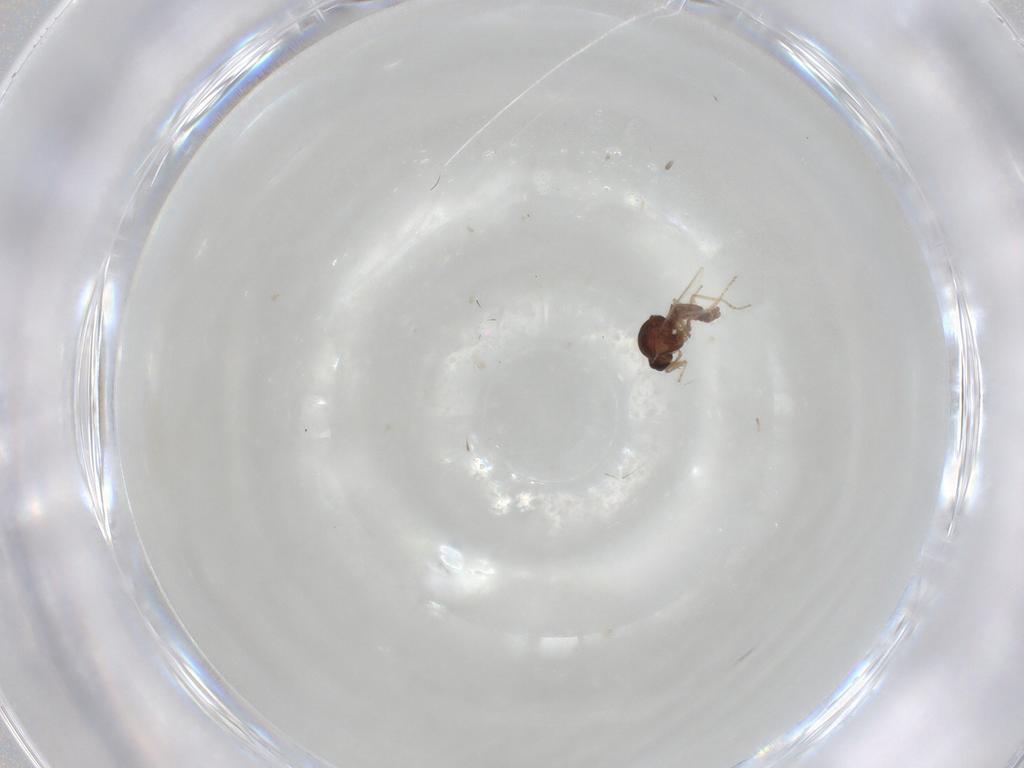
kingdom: Animalia
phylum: Arthropoda
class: Insecta
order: Diptera
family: Ceratopogonidae
